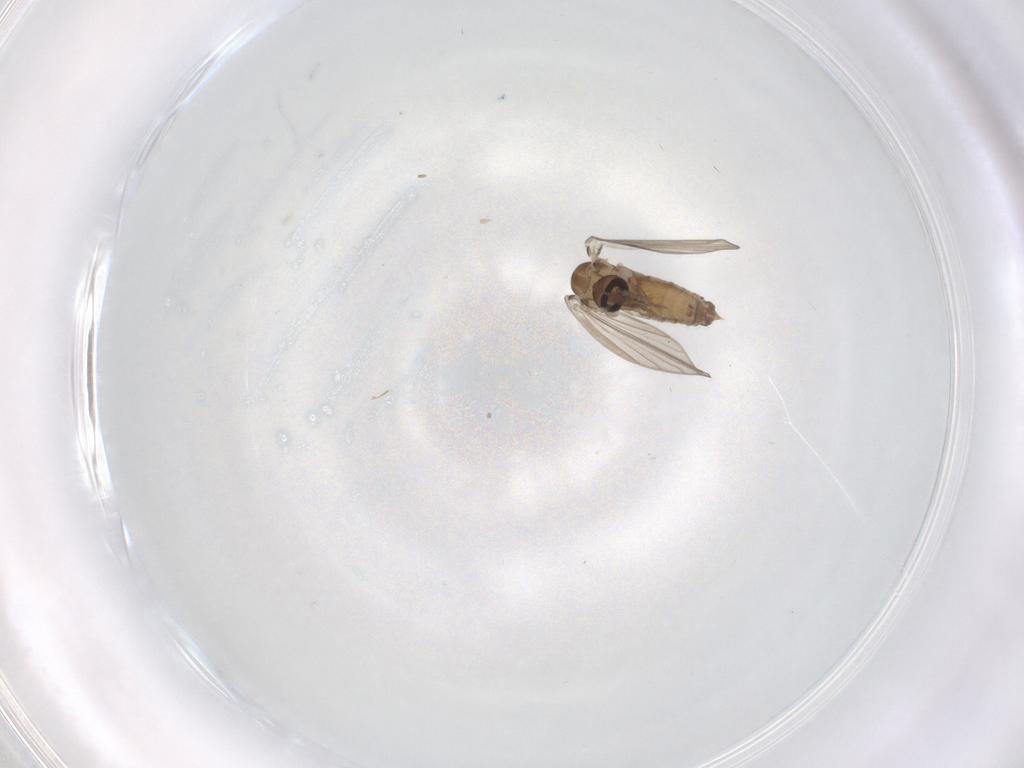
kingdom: Animalia
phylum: Arthropoda
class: Insecta
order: Diptera
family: Psychodidae
